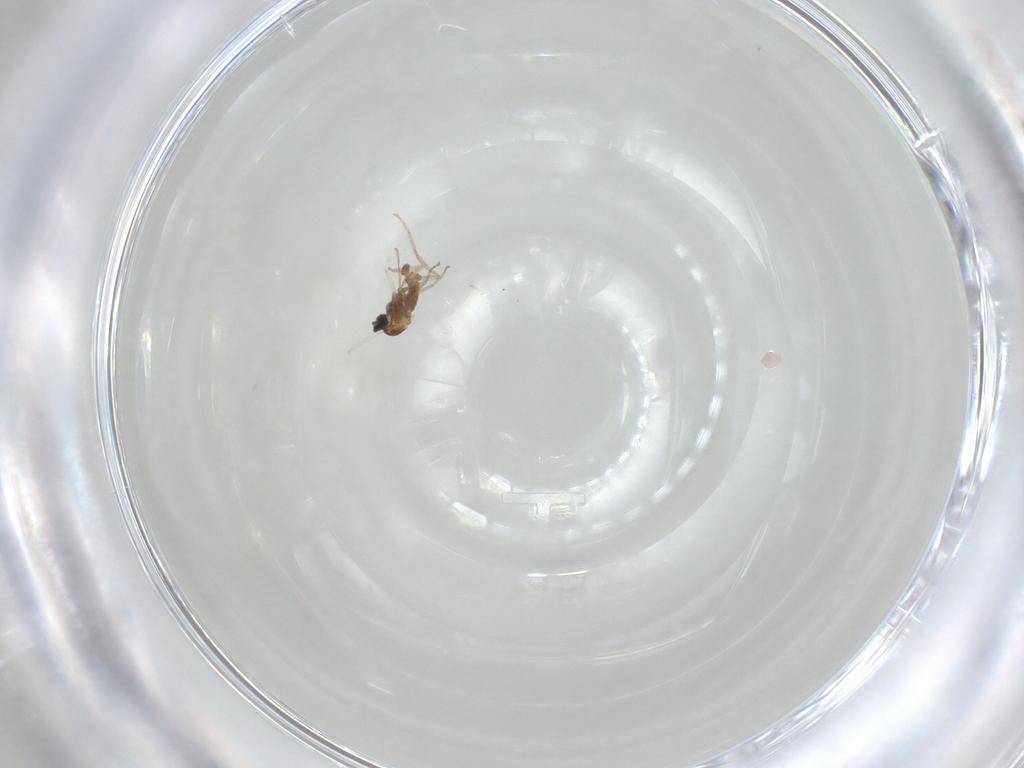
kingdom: Animalia
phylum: Arthropoda
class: Insecta
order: Diptera
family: Cecidomyiidae
